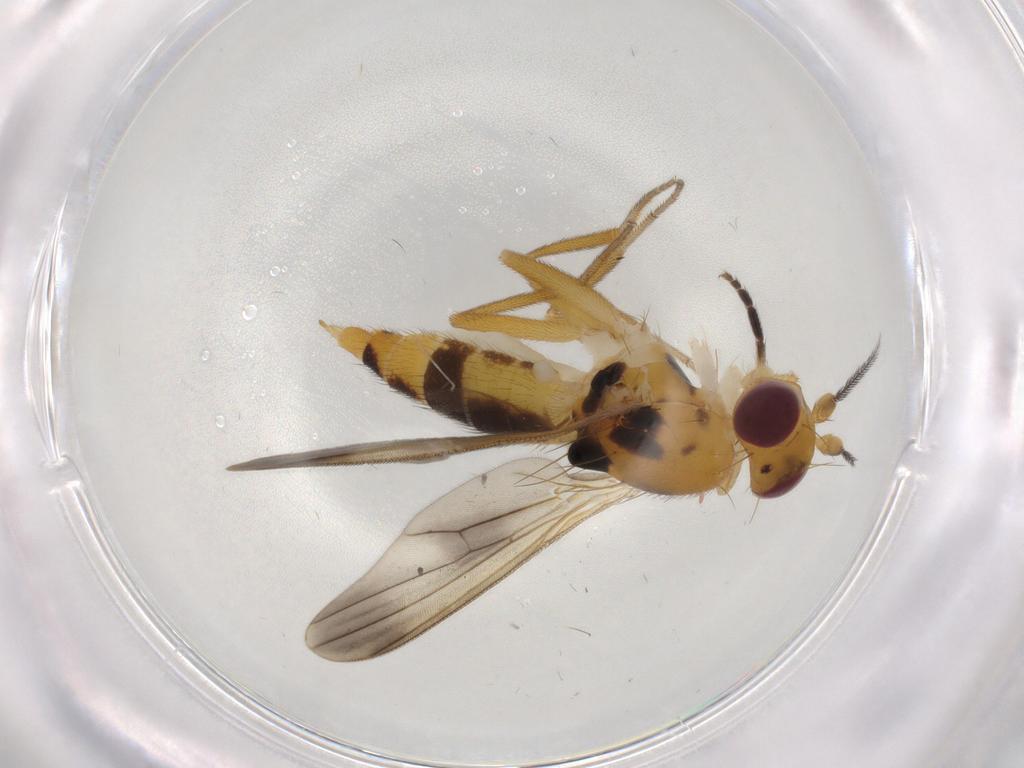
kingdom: Animalia
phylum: Arthropoda
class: Insecta
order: Diptera
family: Clusiidae
